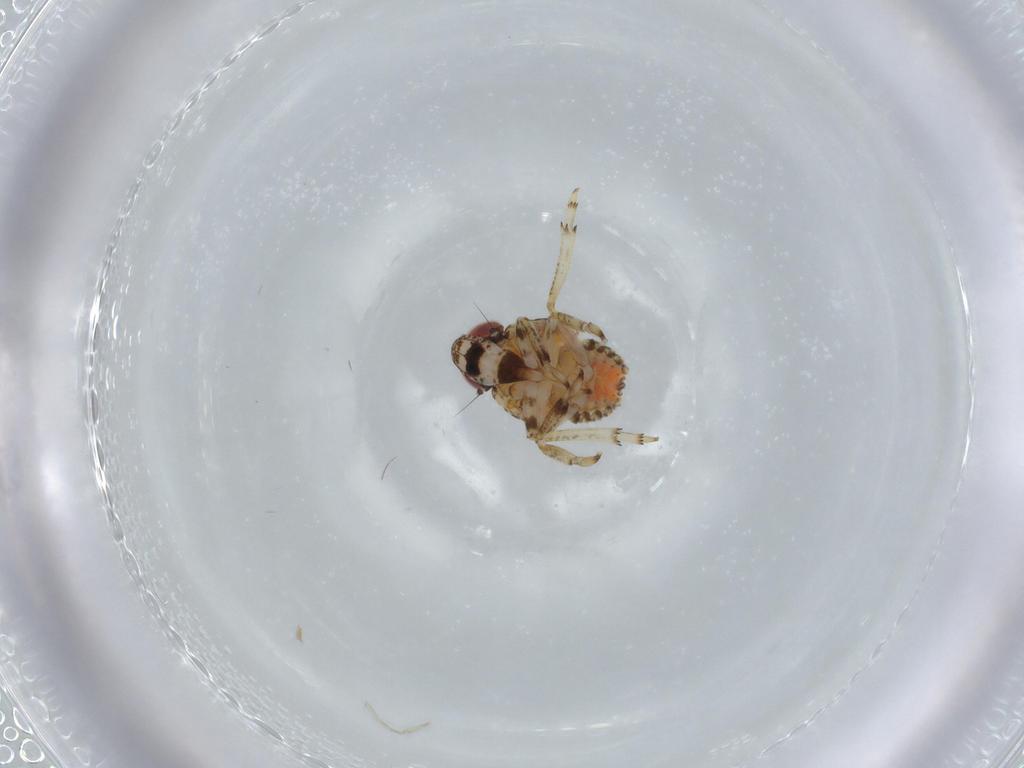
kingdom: Animalia
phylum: Arthropoda
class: Insecta
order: Hemiptera
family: Issidae
